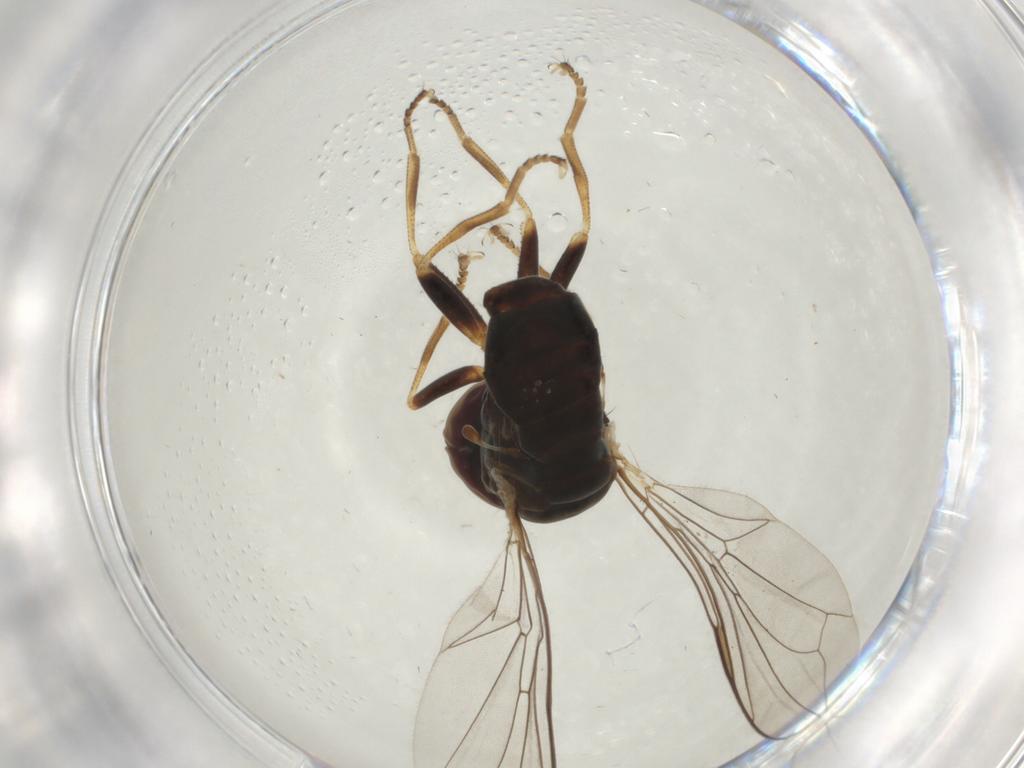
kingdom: Animalia
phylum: Arthropoda
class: Insecta
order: Diptera
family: Pipunculidae
